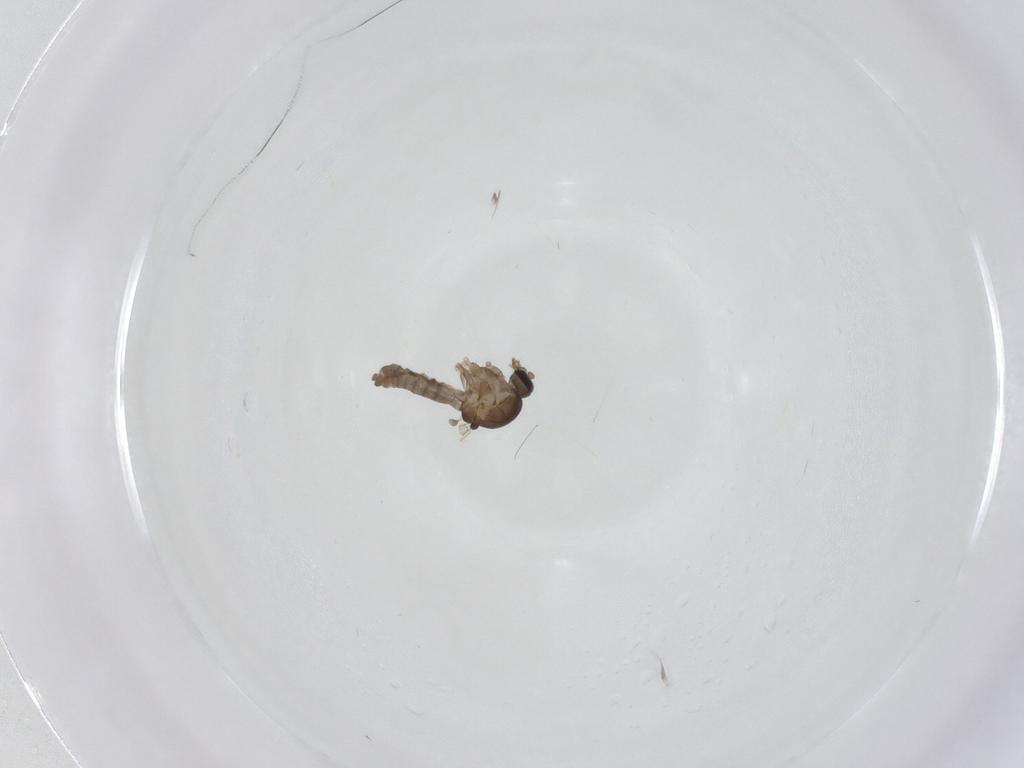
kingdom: Animalia
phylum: Arthropoda
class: Insecta
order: Diptera
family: Ceratopogonidae
